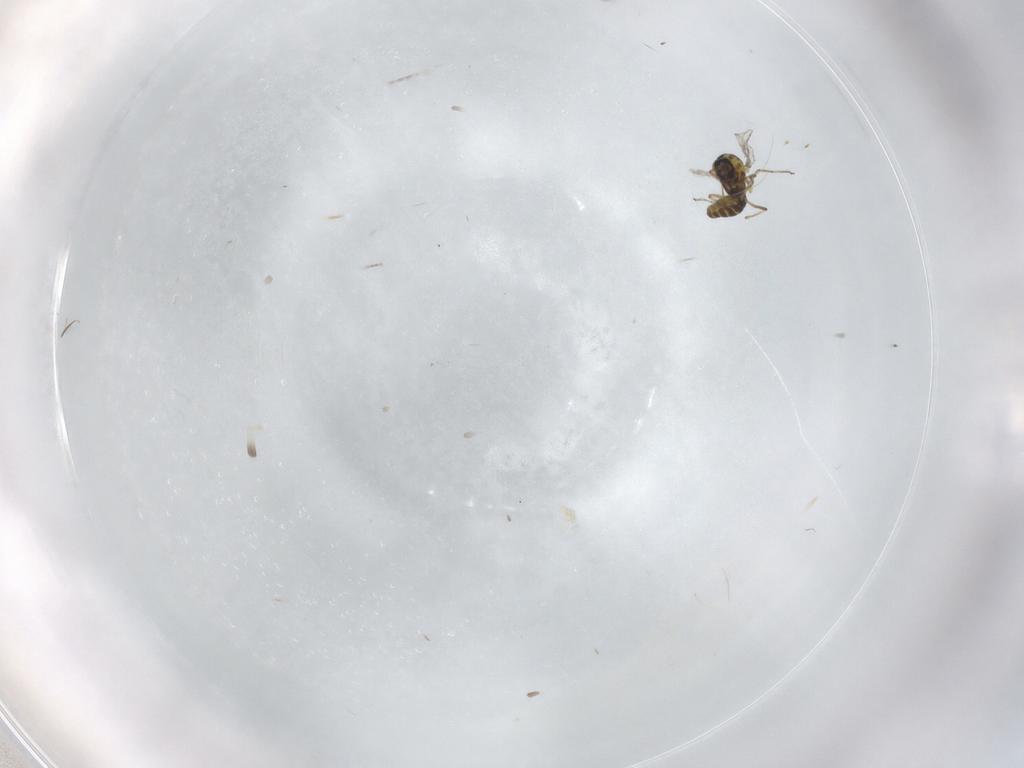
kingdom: Animalia
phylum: Arthropoda
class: Insecta
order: Diptera
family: Ceratopogonidae
